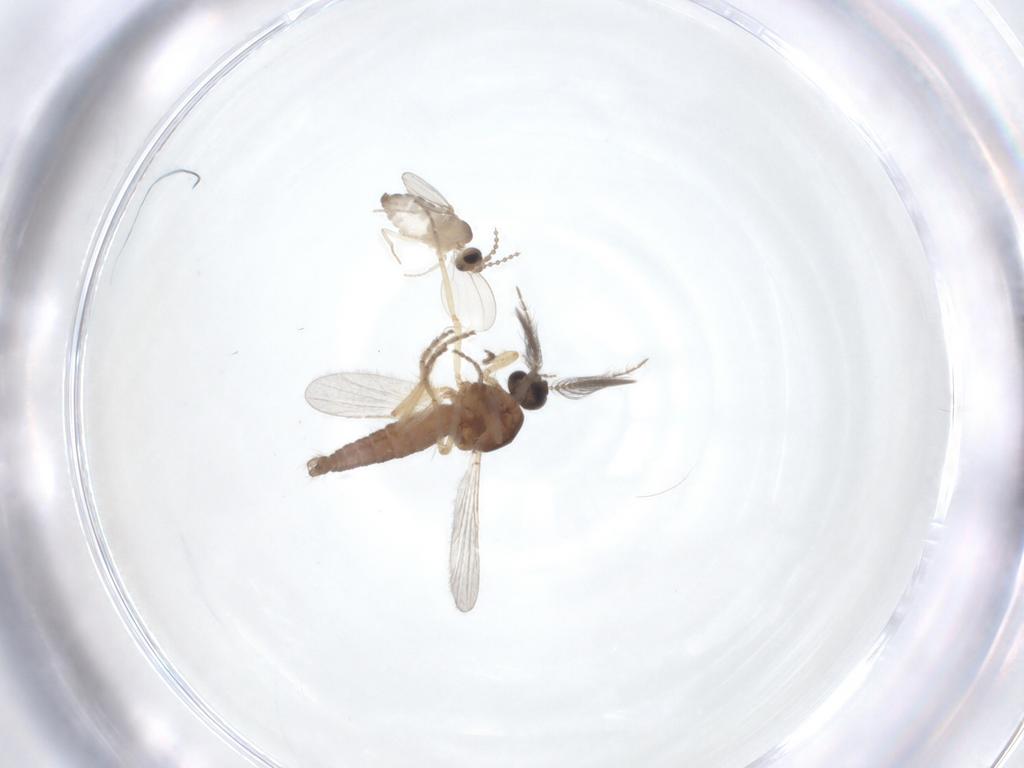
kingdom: Animalia
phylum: Arthropoda
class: Insecta
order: Diptera
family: Ceratopogonidae
